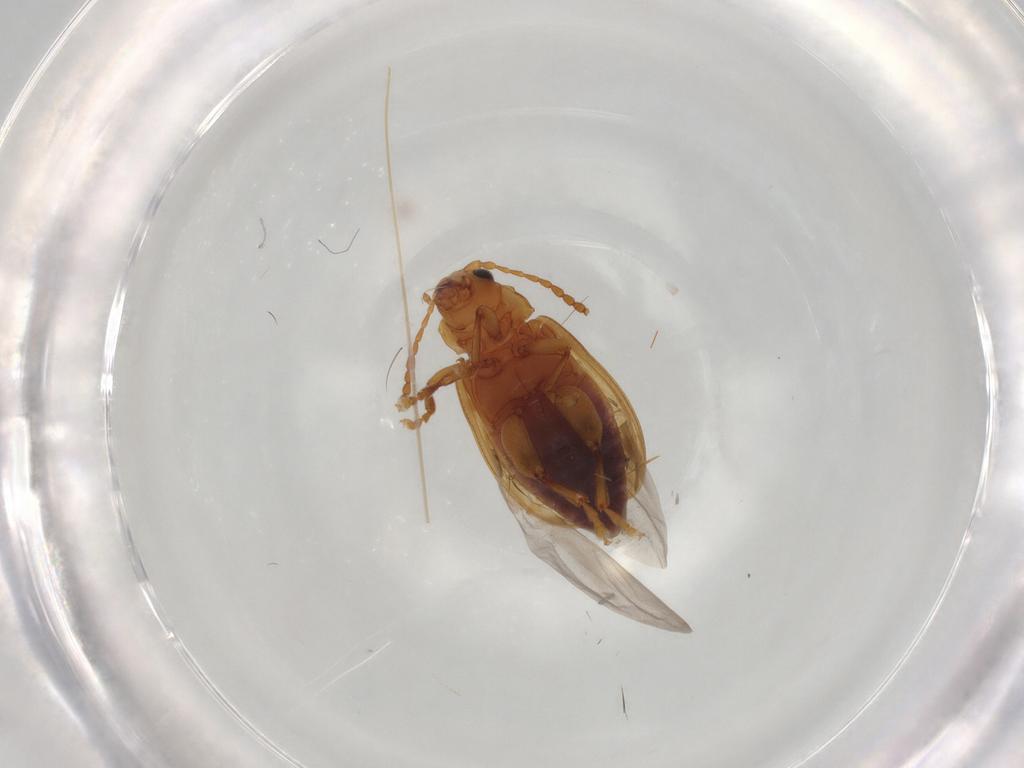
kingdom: Animalia
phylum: Arthropoda
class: Insecta
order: Coleoptera
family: Chrysomelidae
